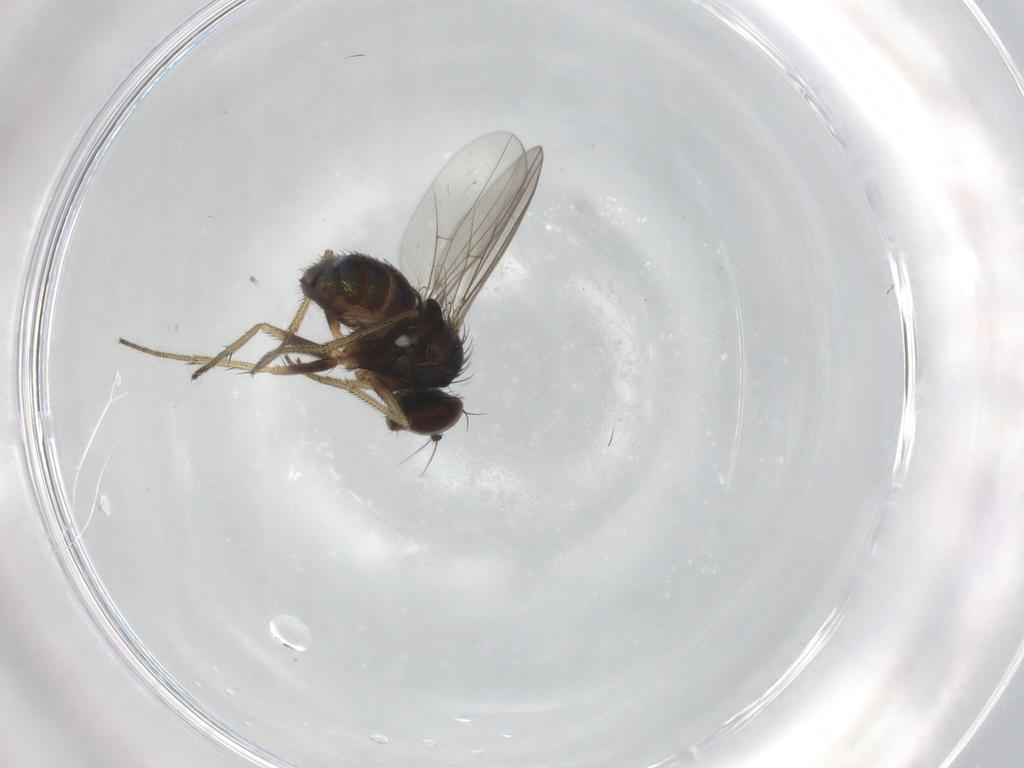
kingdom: Animalia
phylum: Arthropoda
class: Insecta
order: Diptera
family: Dolichopodidae
